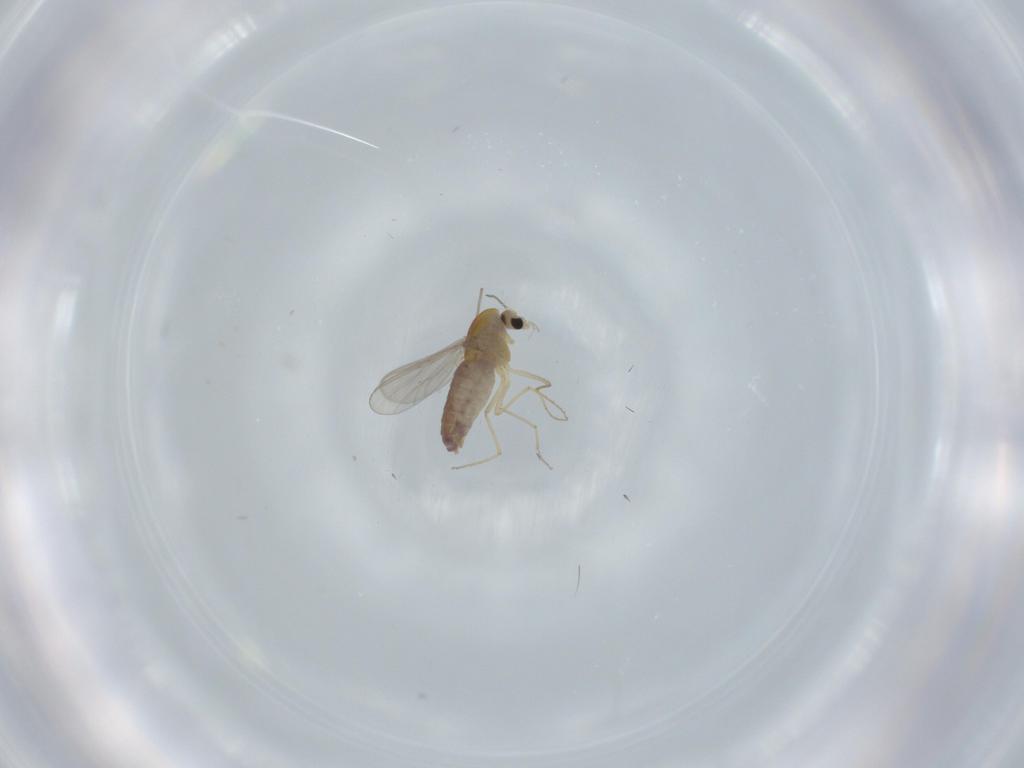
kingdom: Animalia
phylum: Arthropoda
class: Insecta
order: Diptera
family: Chironomidae
